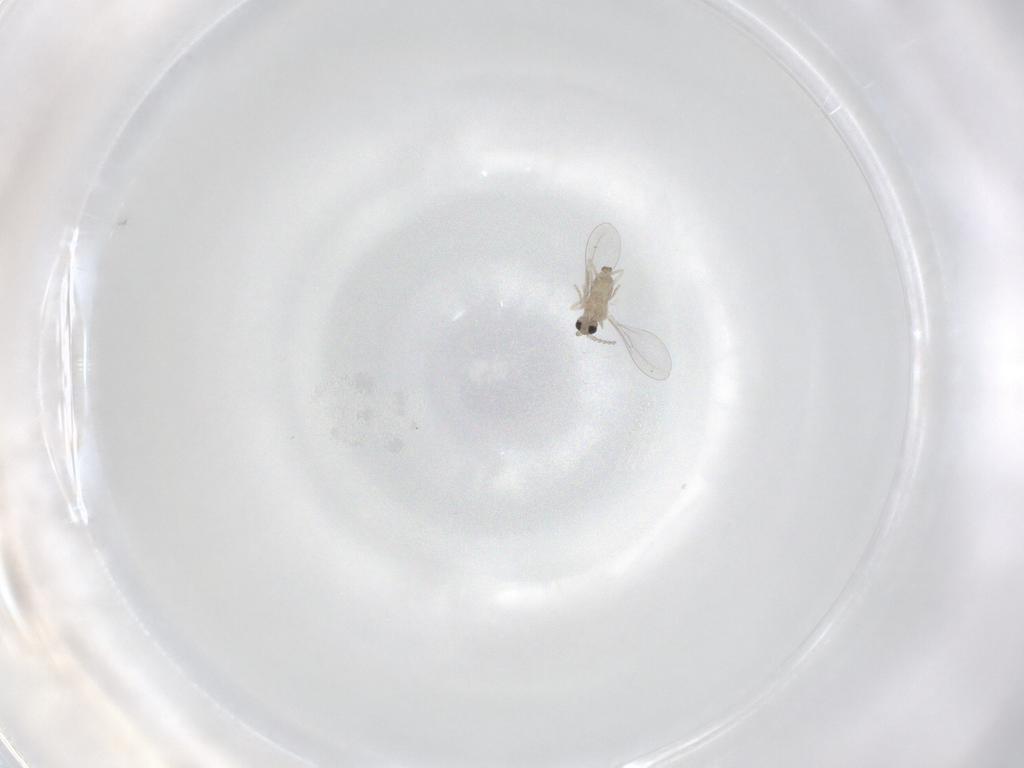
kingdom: Animalia
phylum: Arthropoda
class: Insecta
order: Diptera
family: Cecidomyiidae
